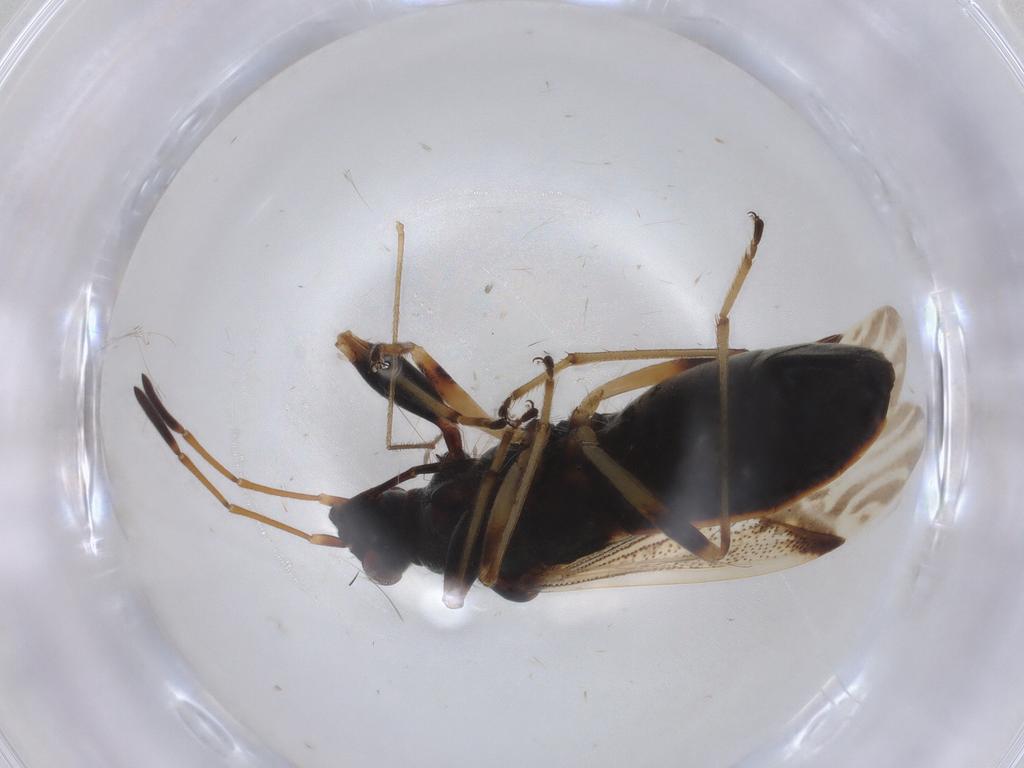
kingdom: Animalia
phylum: Arthropoda
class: Insecta
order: Hemiptera
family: Rhyparochromidae
